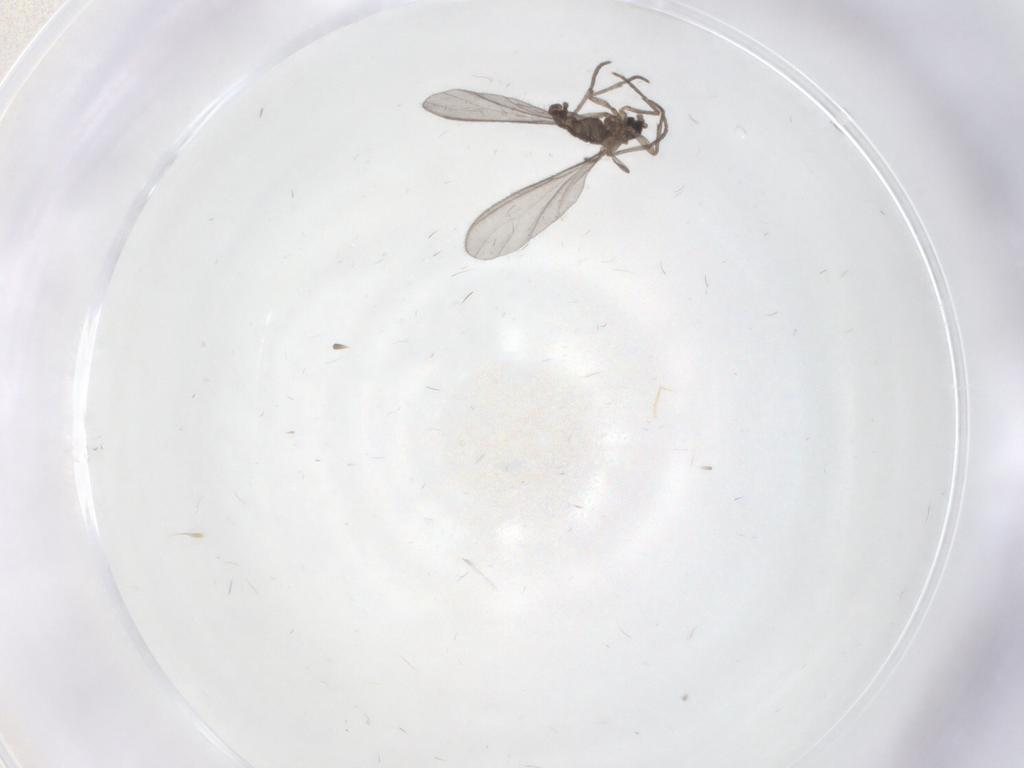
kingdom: Animalia
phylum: Arthropoda
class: Insecta
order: Diptera
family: Sciaridae
